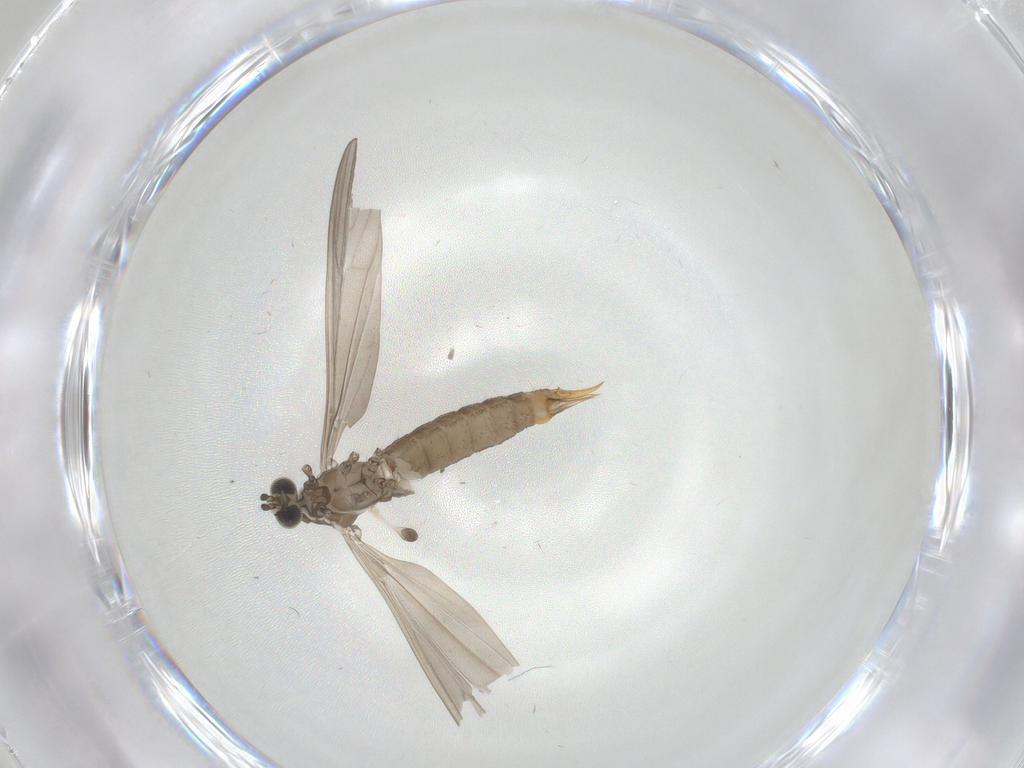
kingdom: Animalia
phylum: Arthropoda
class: Insecta
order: Diptera
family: Limoniidae
